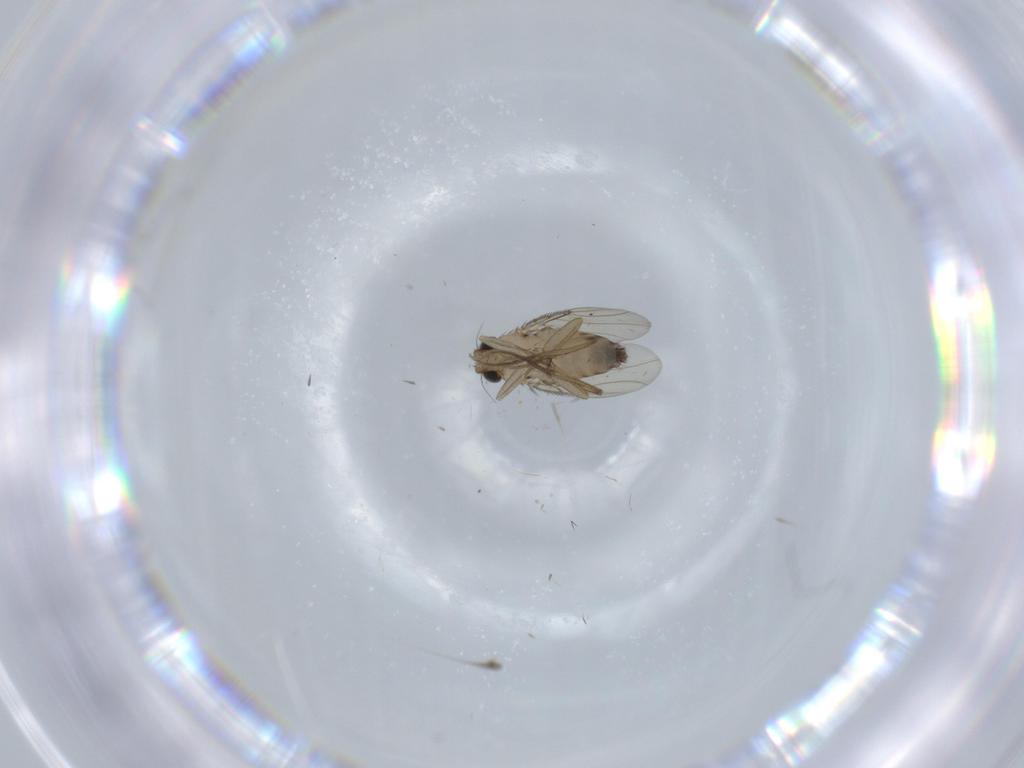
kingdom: Animalia
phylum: Arthropoda
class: Insecta
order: Diptera
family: Phoridae
